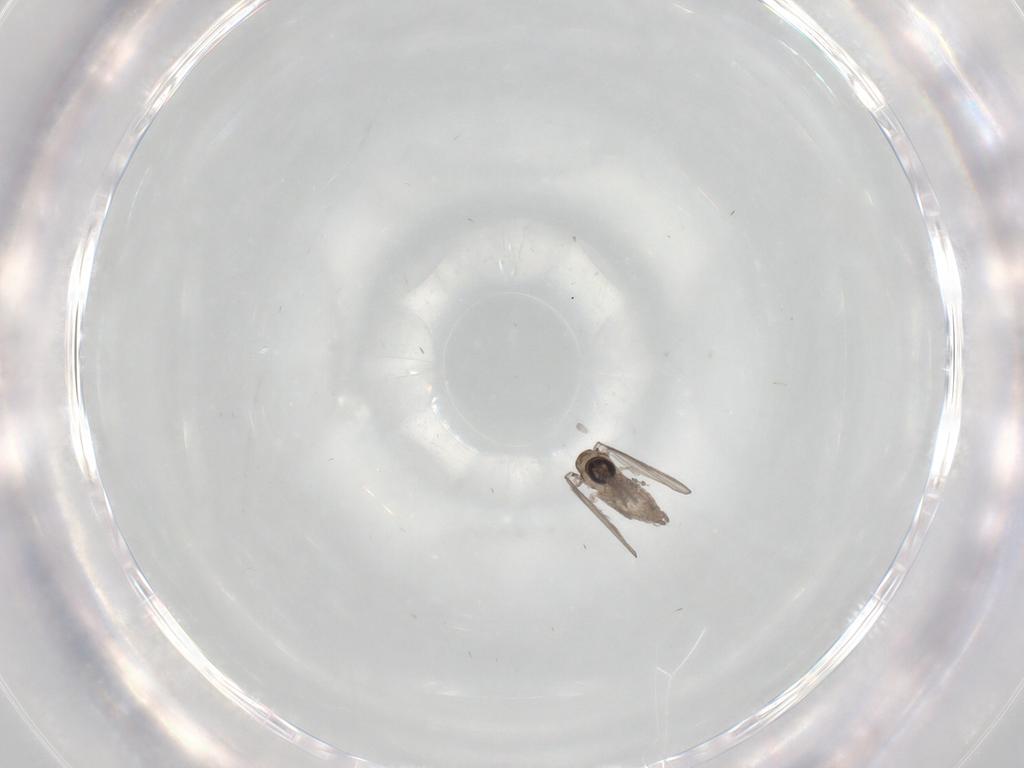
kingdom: Animalia
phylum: Arthropoda
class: Insecta
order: Diptera
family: Psychodidae
